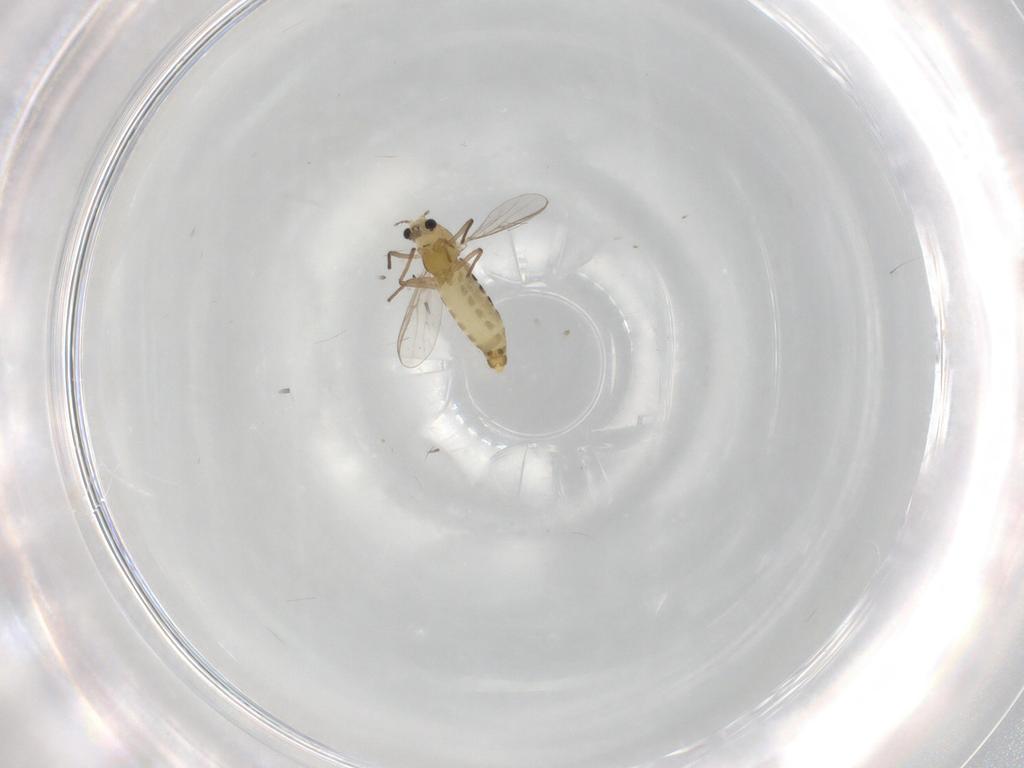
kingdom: Animalia
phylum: Arthropoda
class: Insecta
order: Diptera
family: Chironomidae
